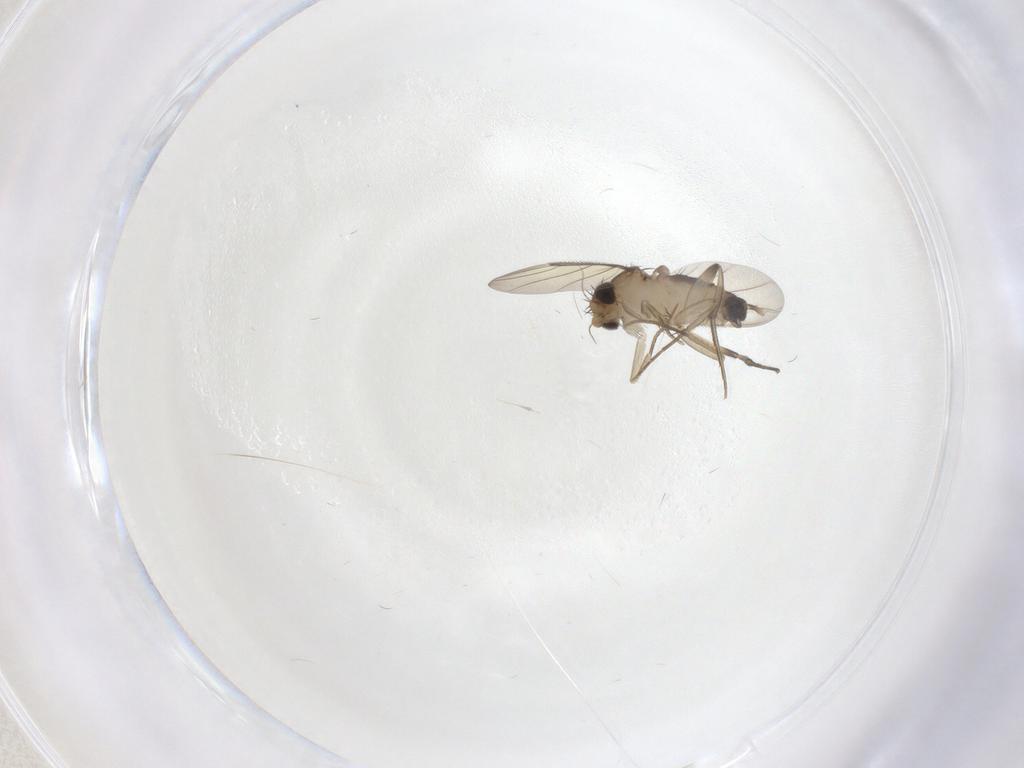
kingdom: Animalia
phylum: Arthropoda
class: Insecta
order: Diptera
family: Phoridae
